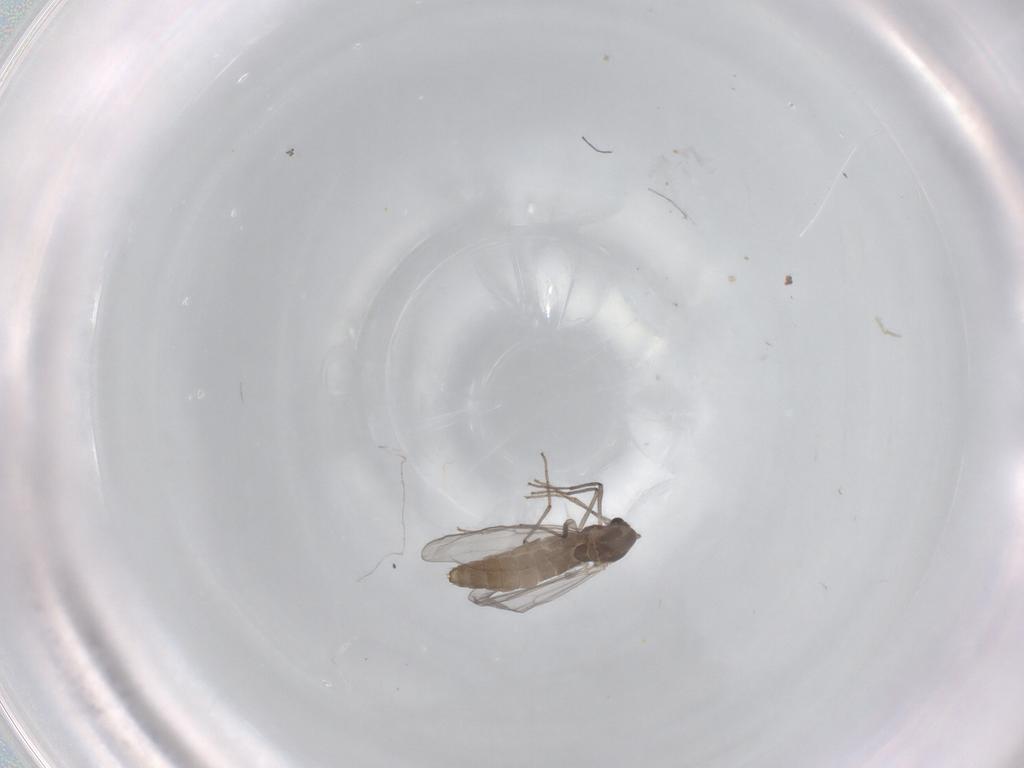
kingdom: Animalia
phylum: Arthropoda
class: Insecta
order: Diptera
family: Chironomidae
